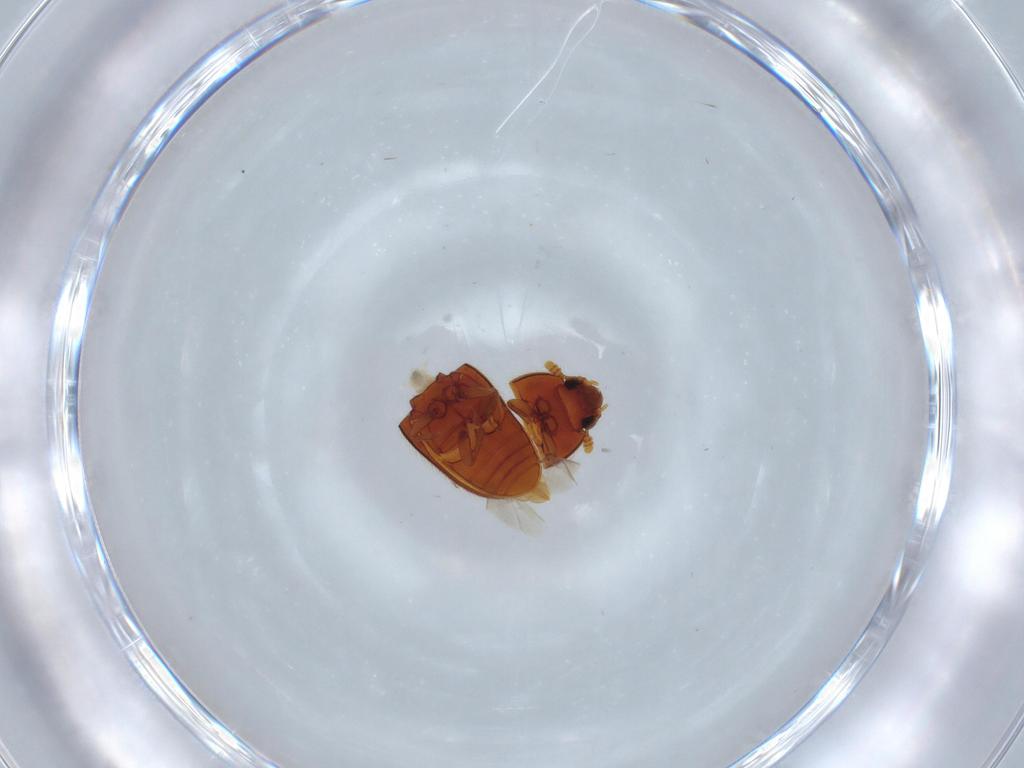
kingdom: Animalia
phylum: Arthropoda
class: Insecta
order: Coleoptera
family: Biphyllidae
